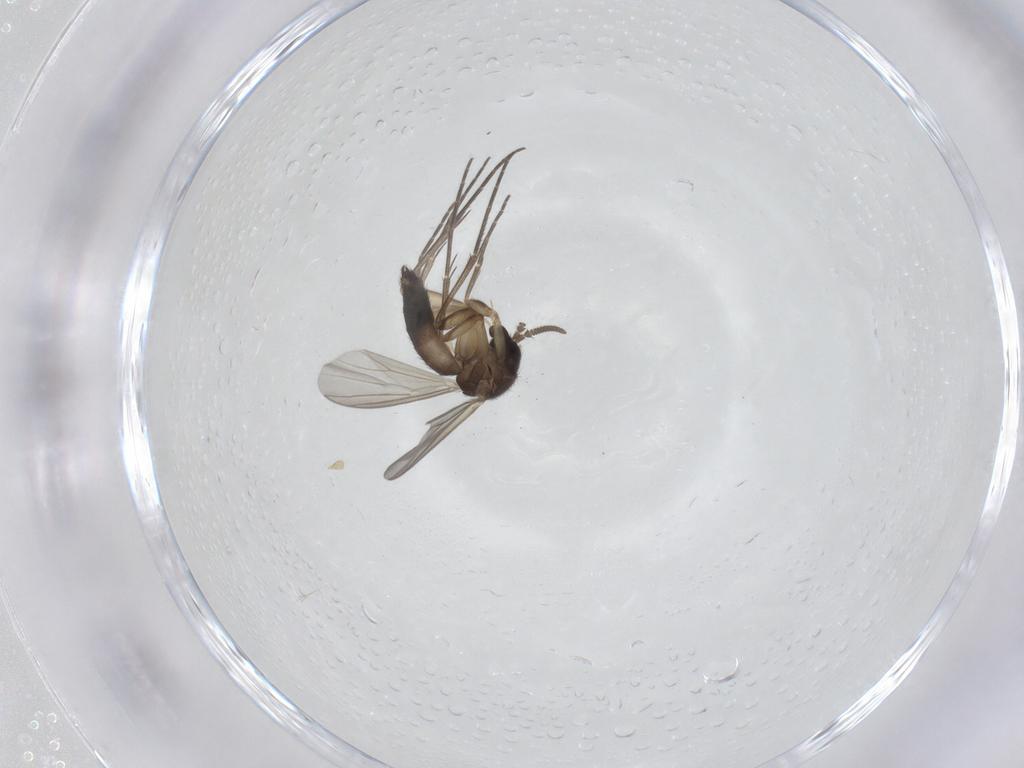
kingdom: Animalia
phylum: Arthropoda
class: Insecta
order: Diptera
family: Mycetophilidae
